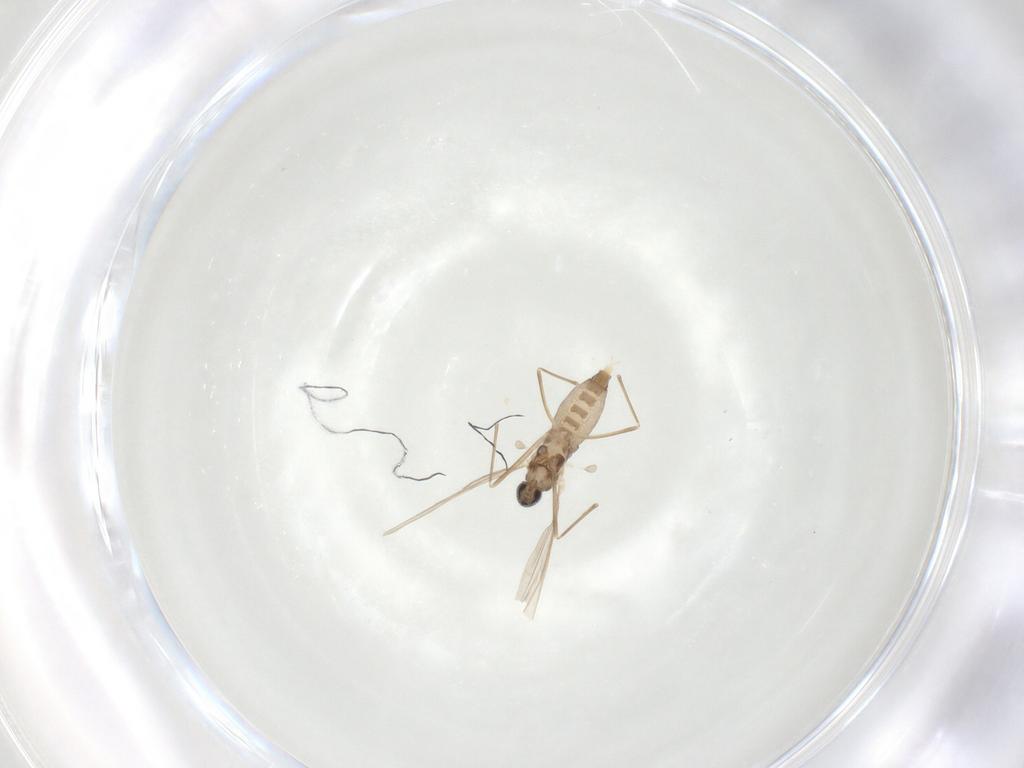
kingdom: Animalia
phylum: Arthropoda
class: Insecta
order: Diptera
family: Cecidomyiidae
